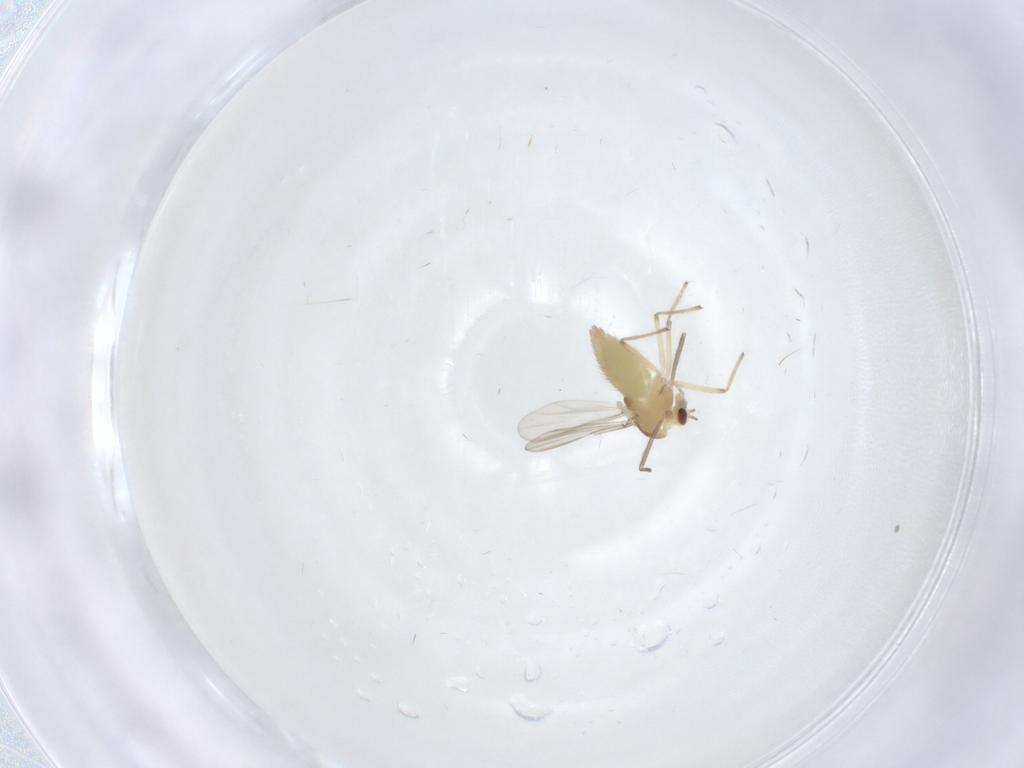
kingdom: Animalia
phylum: Arthropoda
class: Insecta
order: Diptera
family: Chironomidae
